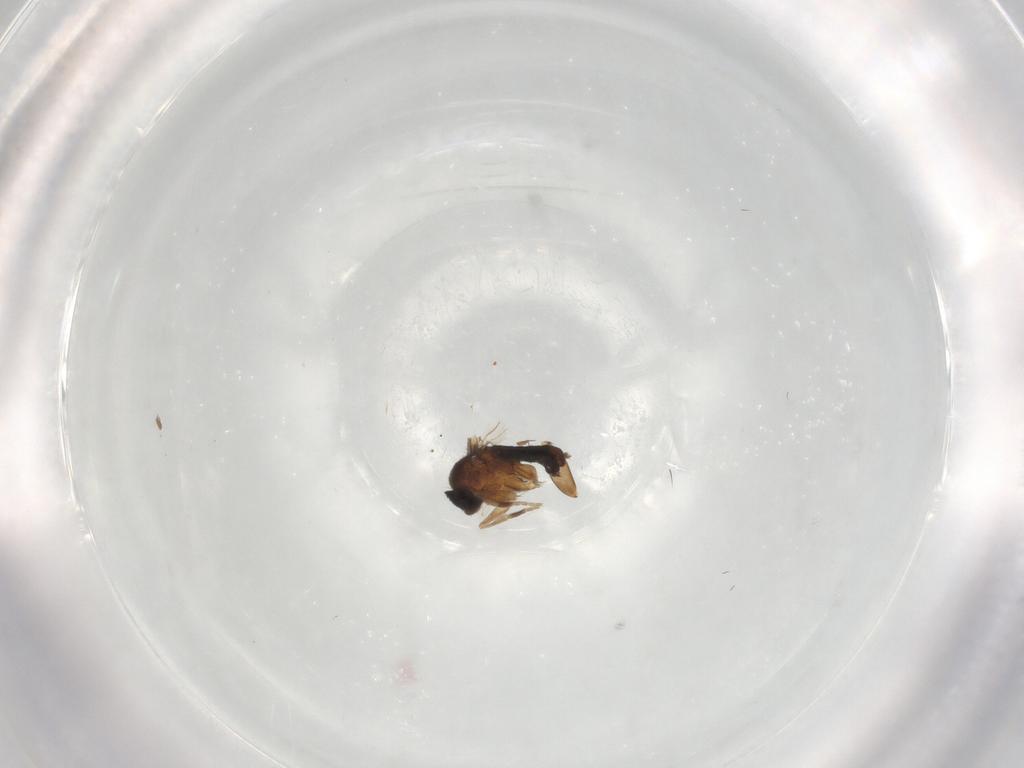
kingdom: Animalia
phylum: Arthropoda
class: Insecta
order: Diptera
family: Phoridae
